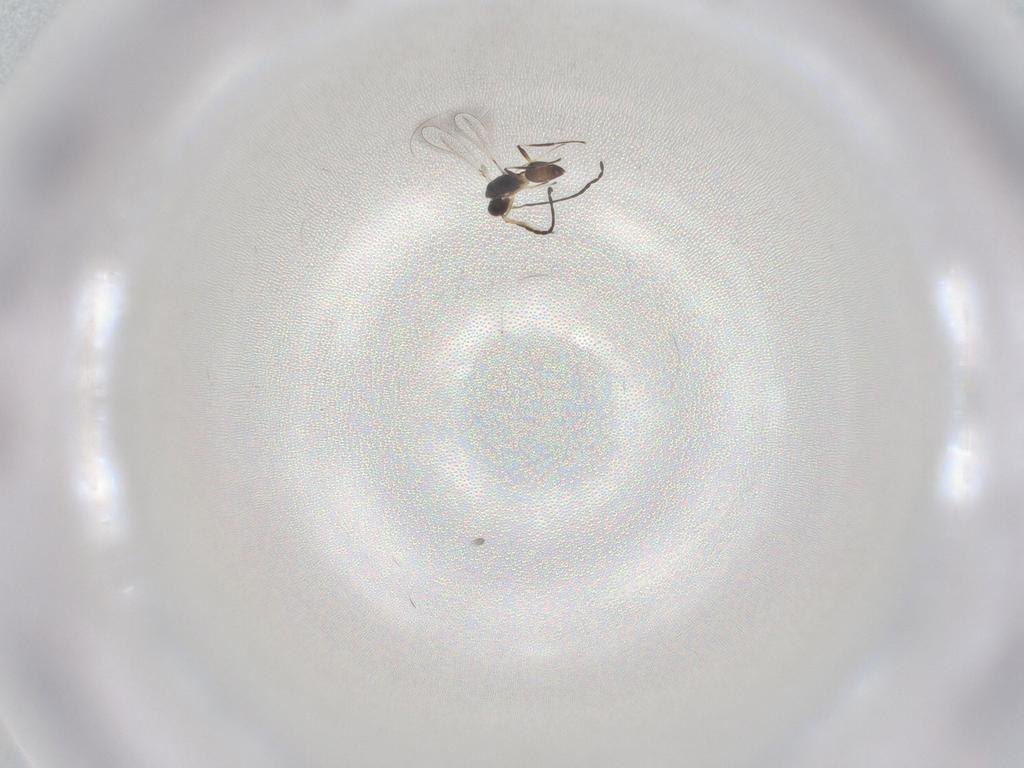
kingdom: Animalia
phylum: Arthropoda
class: Insecta
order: Hymenoptera
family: Mymaridae
